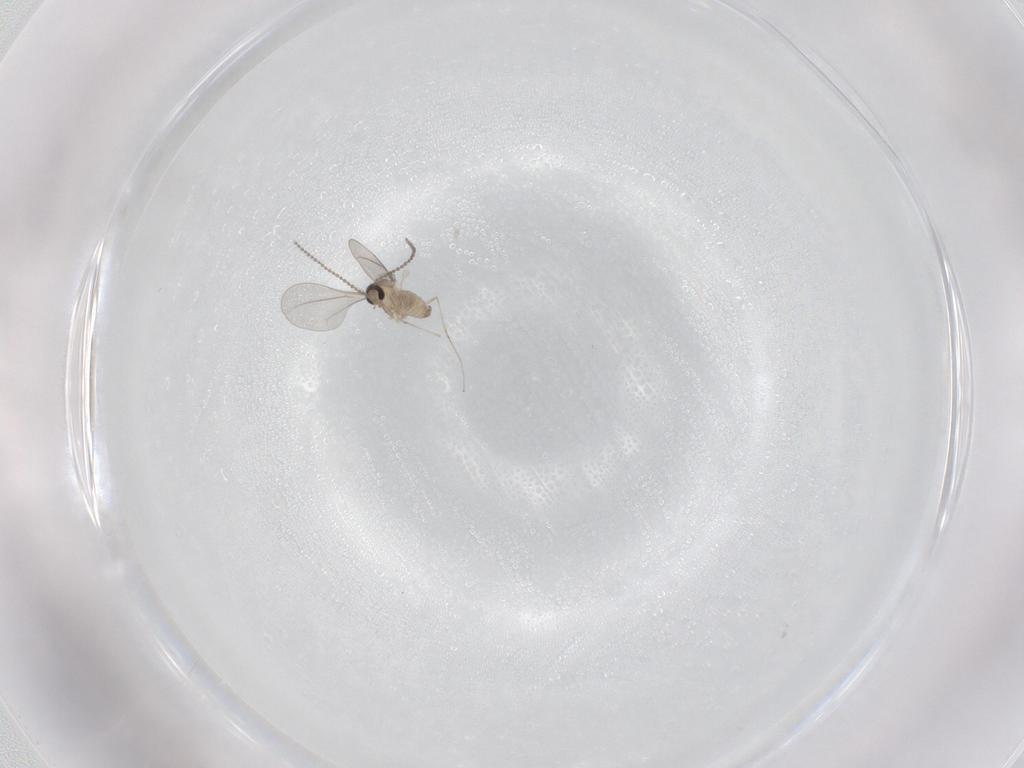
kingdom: Animalia
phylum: Arthropoda
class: Insecta
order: Diptera
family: Cecidomyiidae
